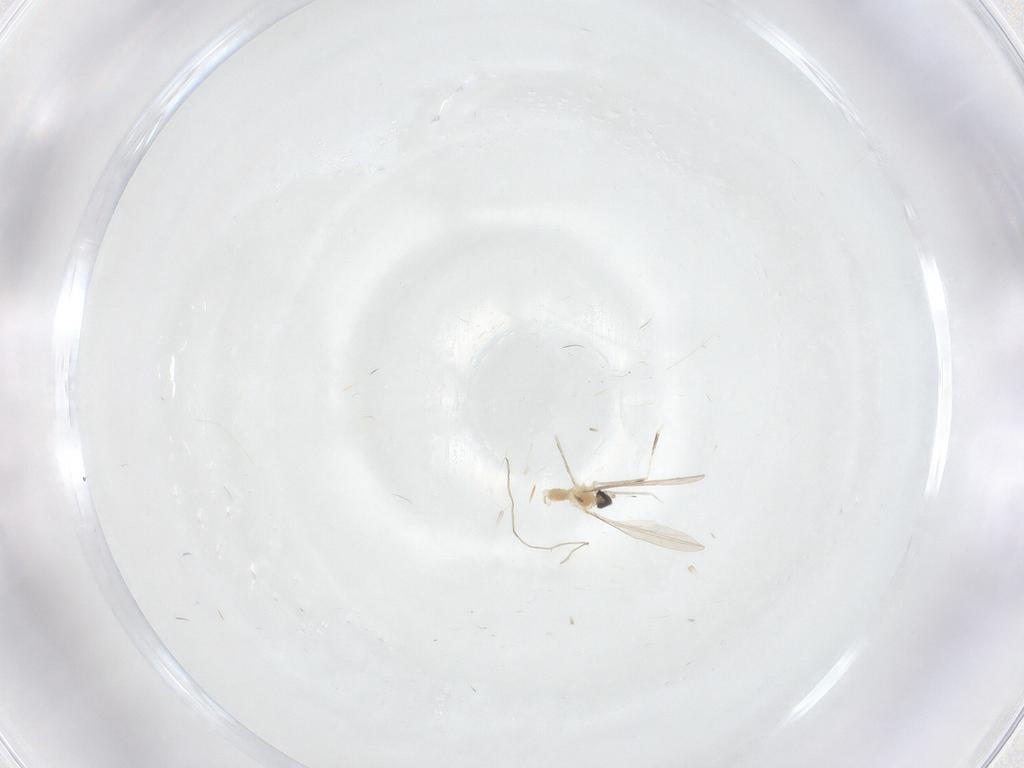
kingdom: Animalia
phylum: Arthropoda
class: Insecta
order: Diptera
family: Cecidomyiidae
